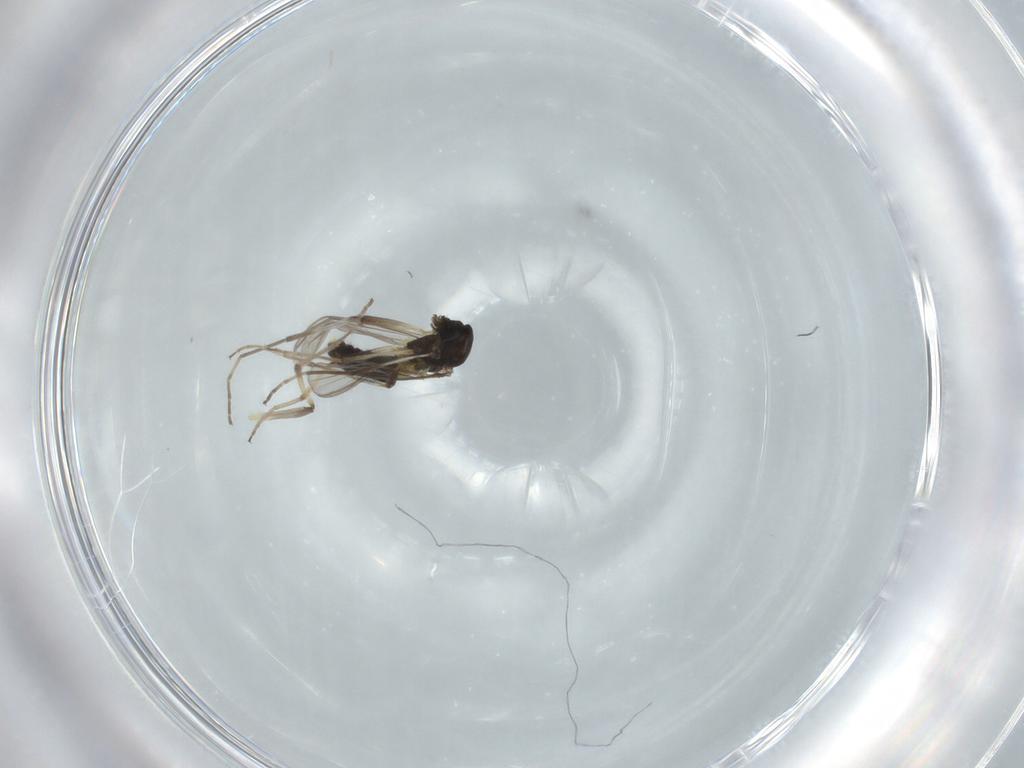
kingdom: Animalia
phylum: Arthropoda
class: Insecta
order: Diptera
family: Chironomidae
